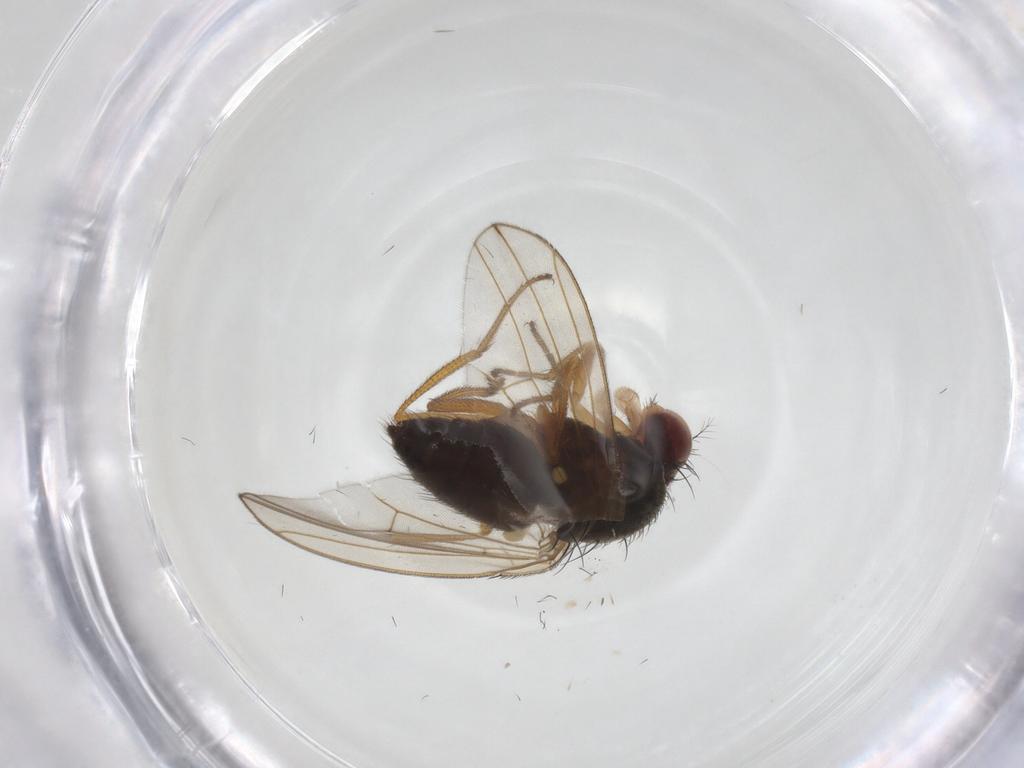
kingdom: Animalia
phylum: Arthropoda
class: Insecta
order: Diptera
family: Drosophilidae
